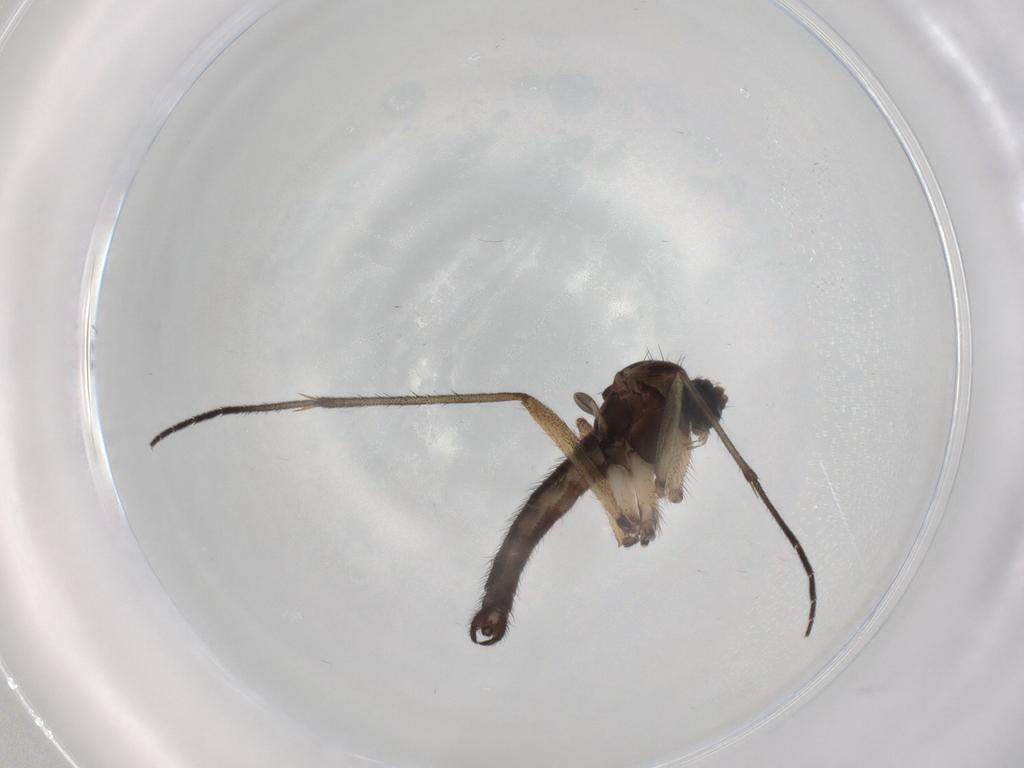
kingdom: Animalia
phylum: Arthropoda
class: Insecta
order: Diptera
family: Sciaridae
